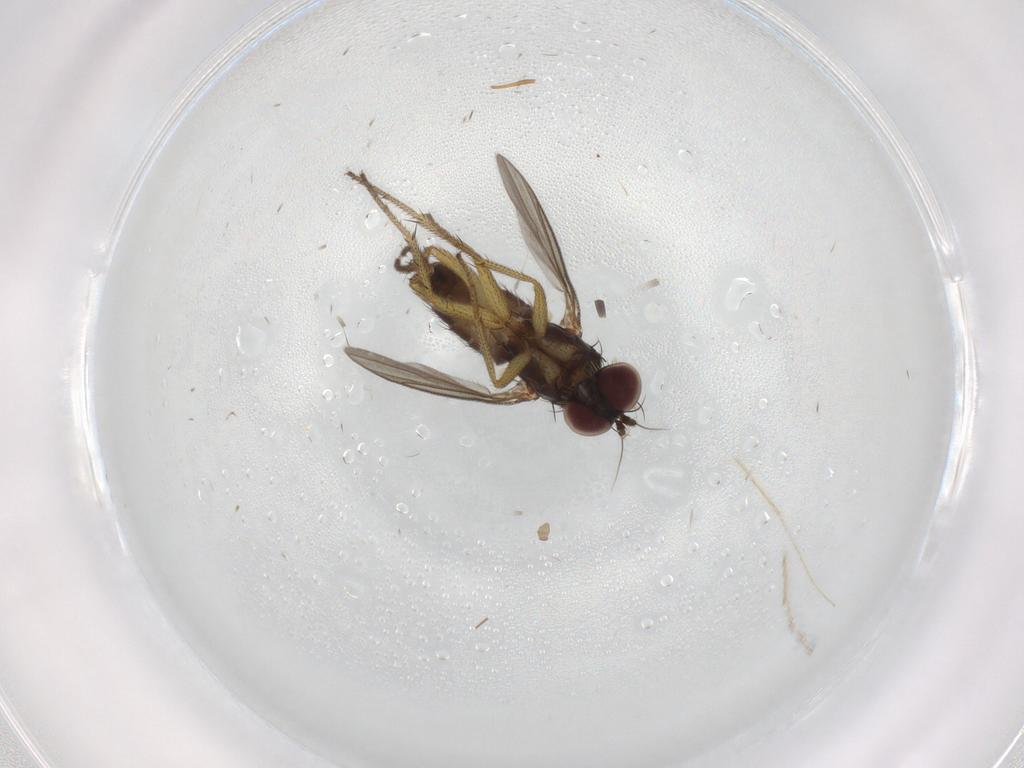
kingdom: Animalia
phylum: Arthropoda
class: Insecta
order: Diptera
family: Dolichopodidae
